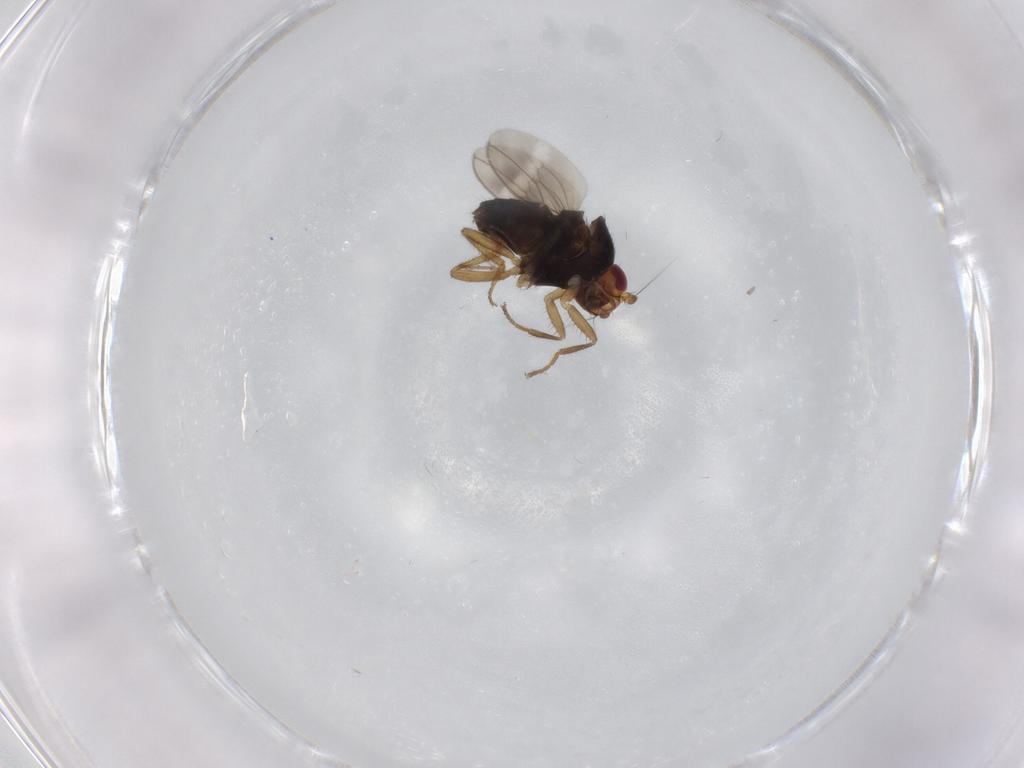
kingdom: Animalia
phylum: Arthropoda
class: Insecta
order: Diptera
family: Sphaeroceridae
